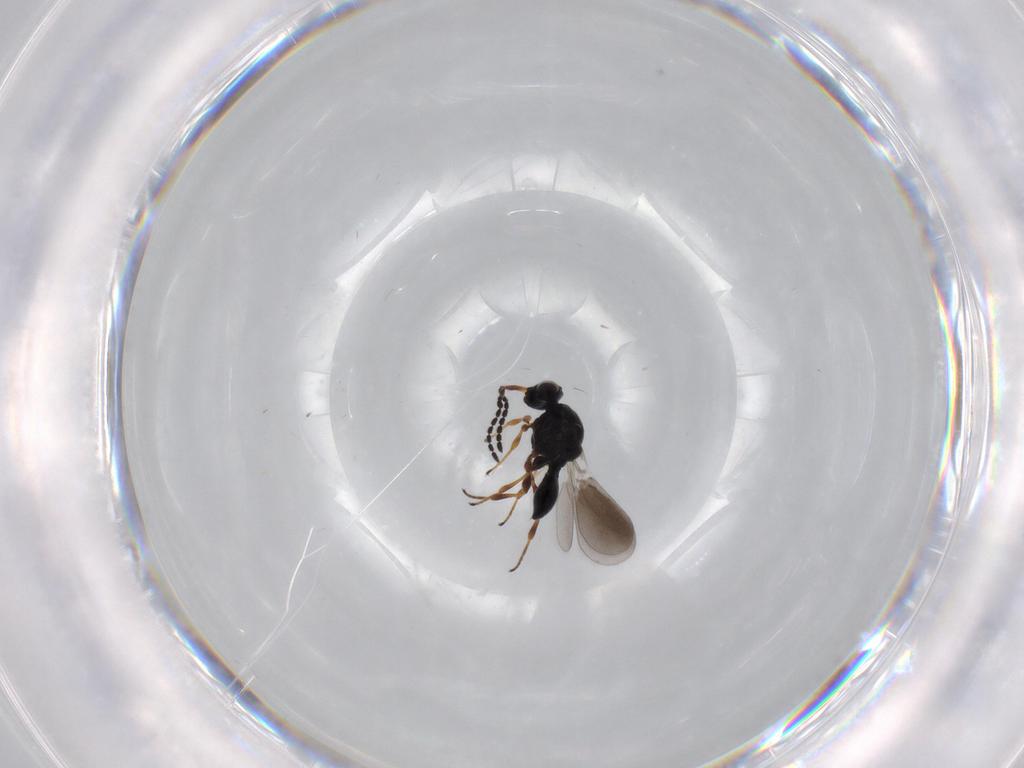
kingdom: Animalia
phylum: Arthropoda
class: Insecta
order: Hymenoptera
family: Platygastridae
